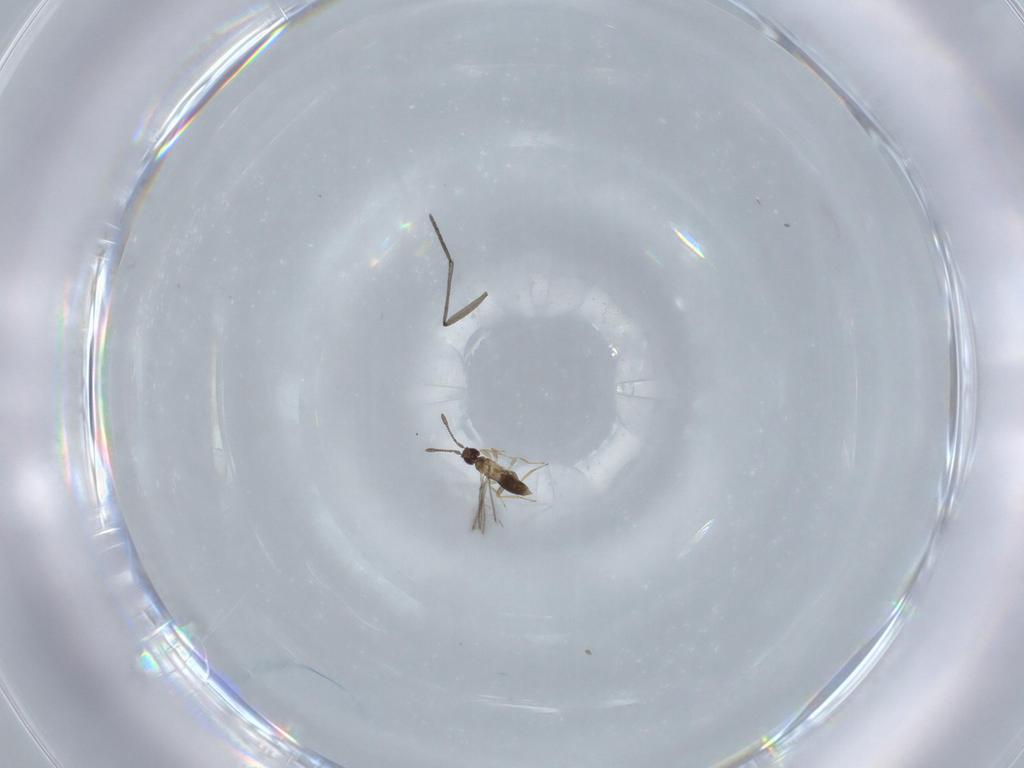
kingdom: Animalia
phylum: Arthropoda
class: Insecta
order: Hymenoptera
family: Mymaridae
